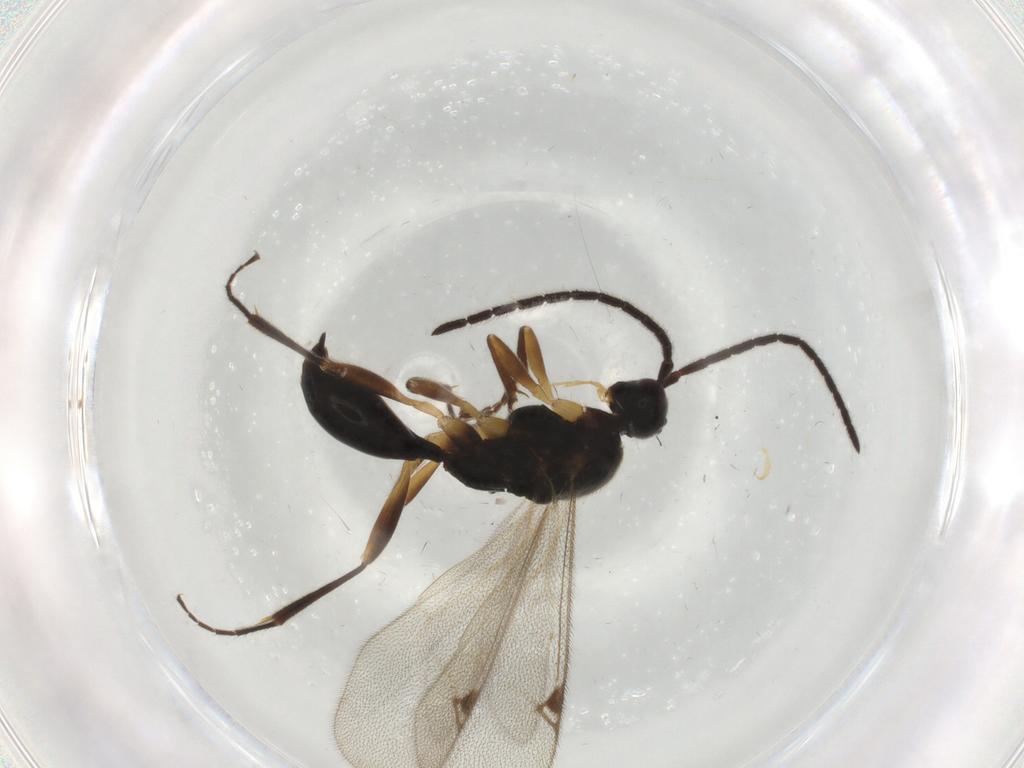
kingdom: Animalia
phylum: Arthropoda
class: Insecta
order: Hymenoptera
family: Proctotrupidae
